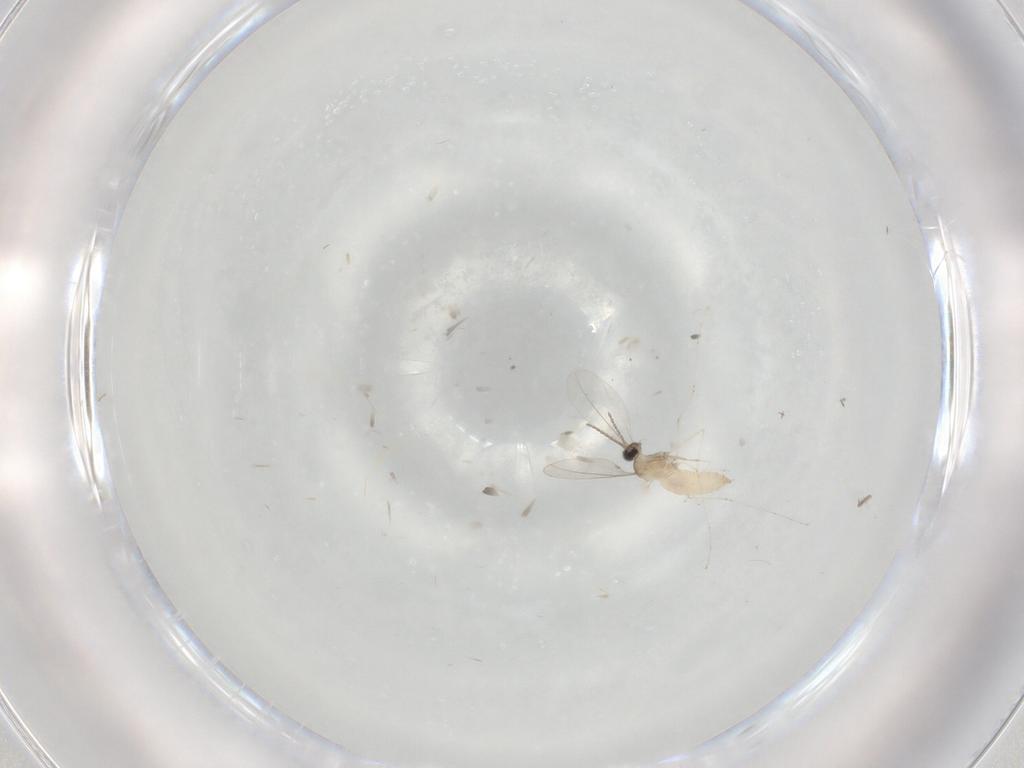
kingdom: Animalia
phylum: Arthropoda
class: Insecta
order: Diptera
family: Cecidomyiidae
